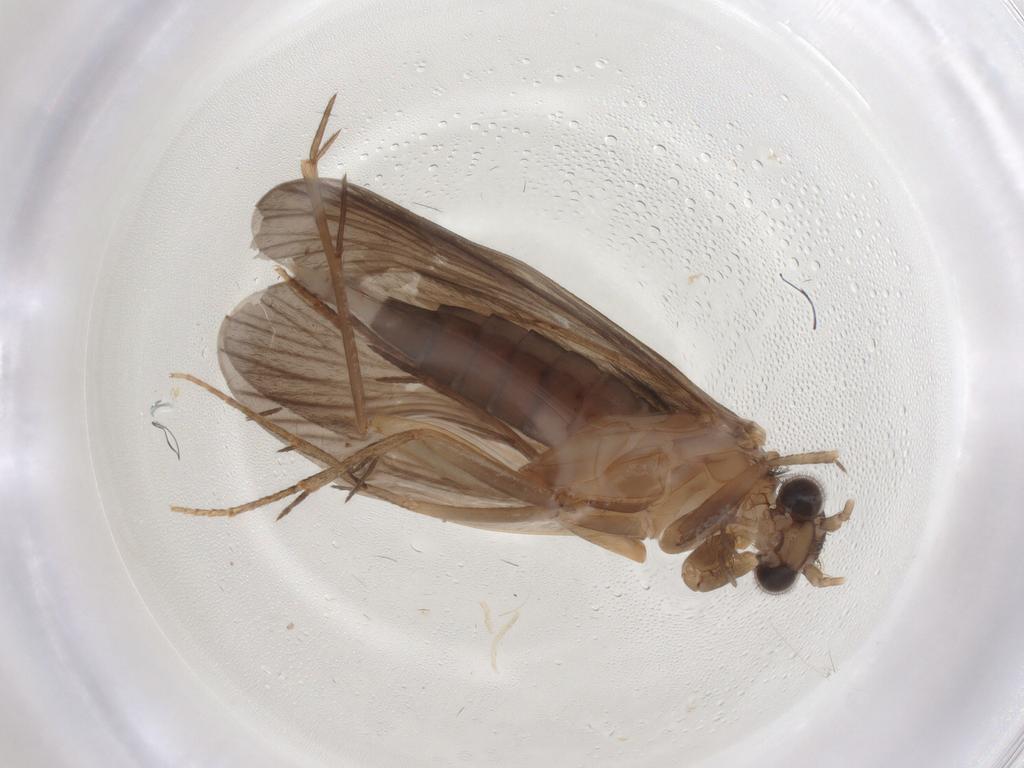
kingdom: Animalia
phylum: Arthropoda
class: Insecta
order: Trichoptera
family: Philopotamidae
